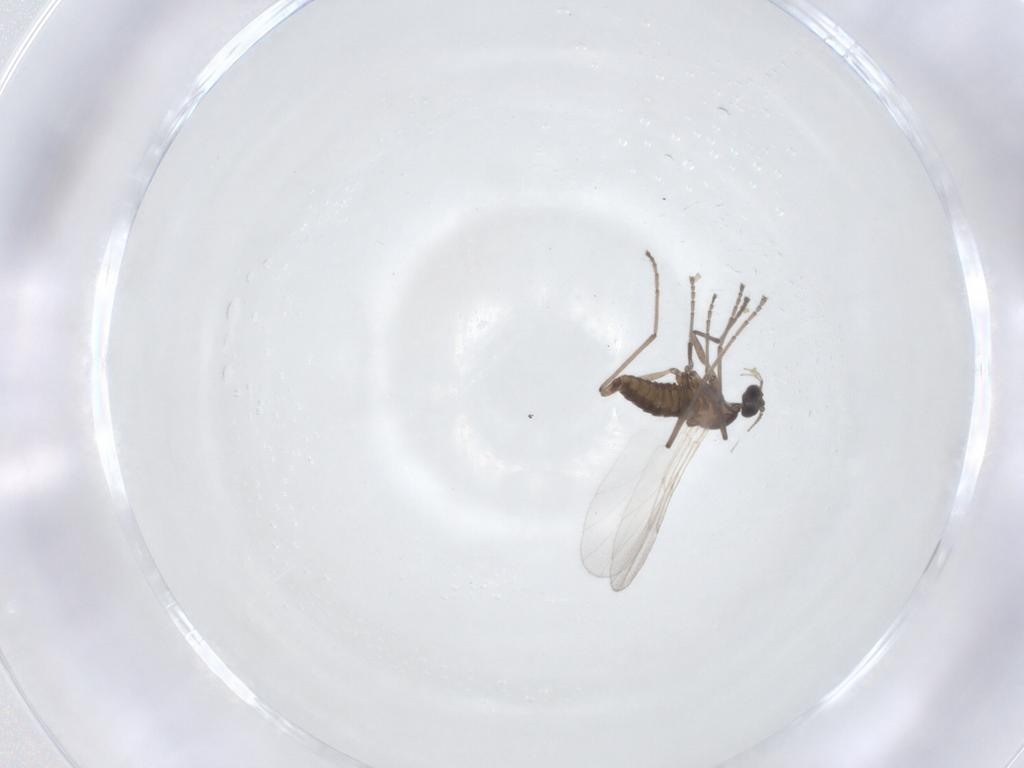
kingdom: Animalia
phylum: Arthropoda
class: Insecta
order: Diptera
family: Cecidomyiidae
